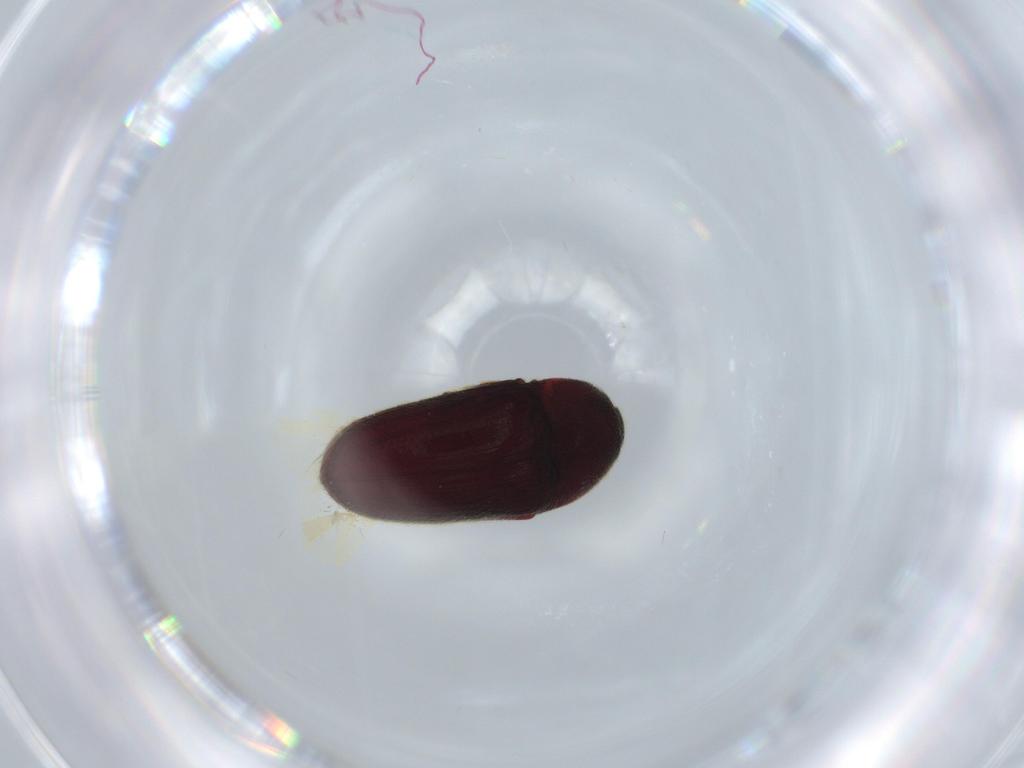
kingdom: Animalia
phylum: Arthropoda
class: Insecta
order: Coleoptera
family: Throscidae
